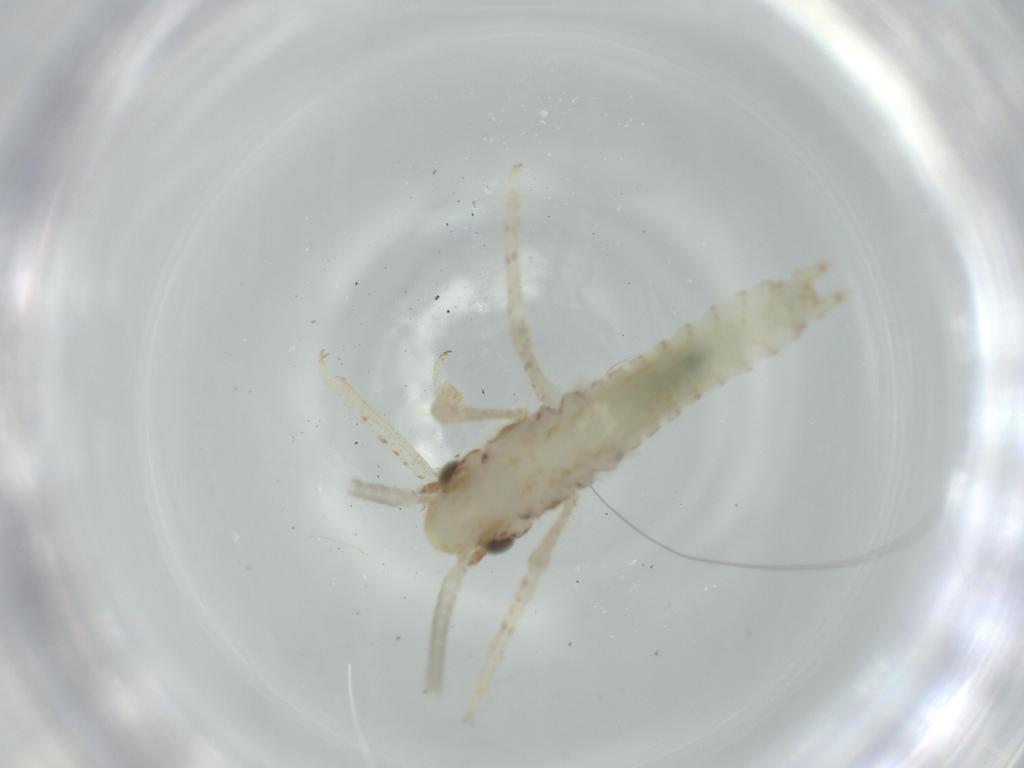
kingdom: Animalia
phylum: Arthropoda
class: Insecta
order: Orthoptera
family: Gryllidae
